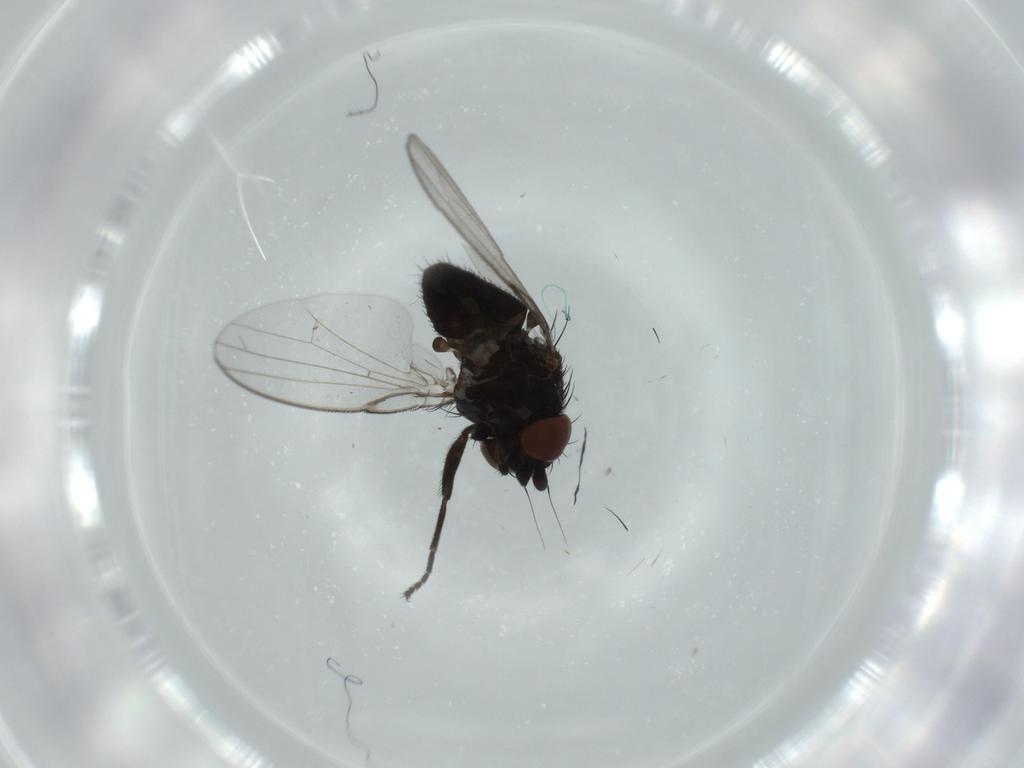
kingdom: Animalia
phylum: Arthropoda
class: Insecta
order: Diptera
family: Milichiidae
